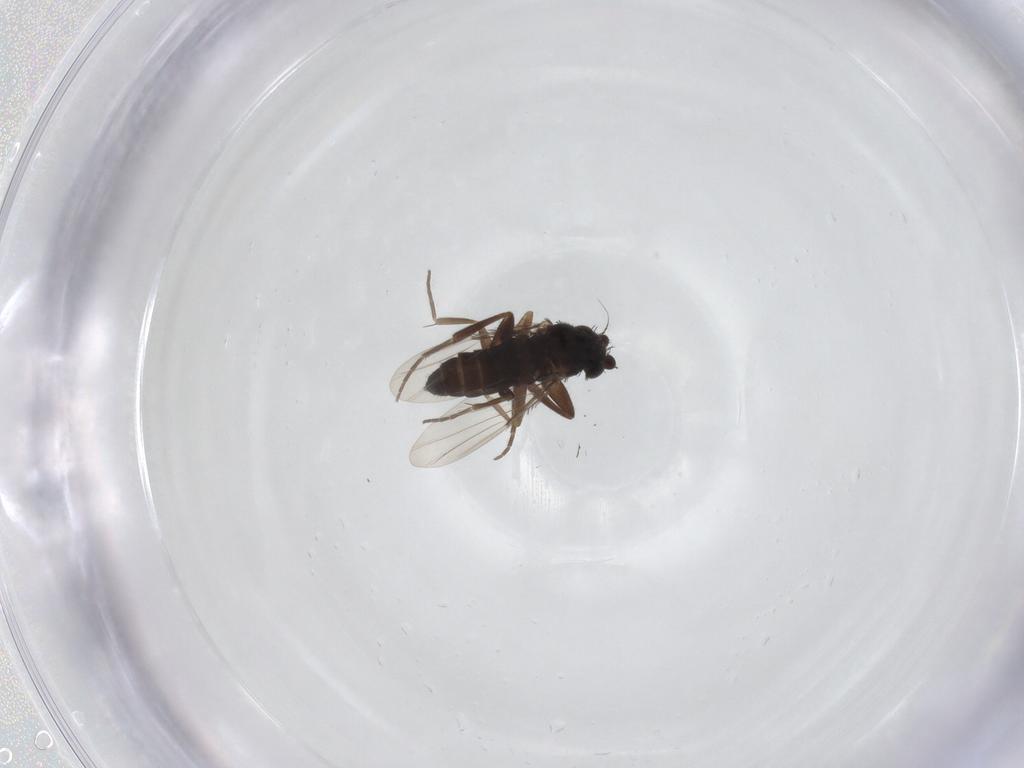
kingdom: Animalia
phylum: Arthropoda
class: Insecta
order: Diptera
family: Phoridae
